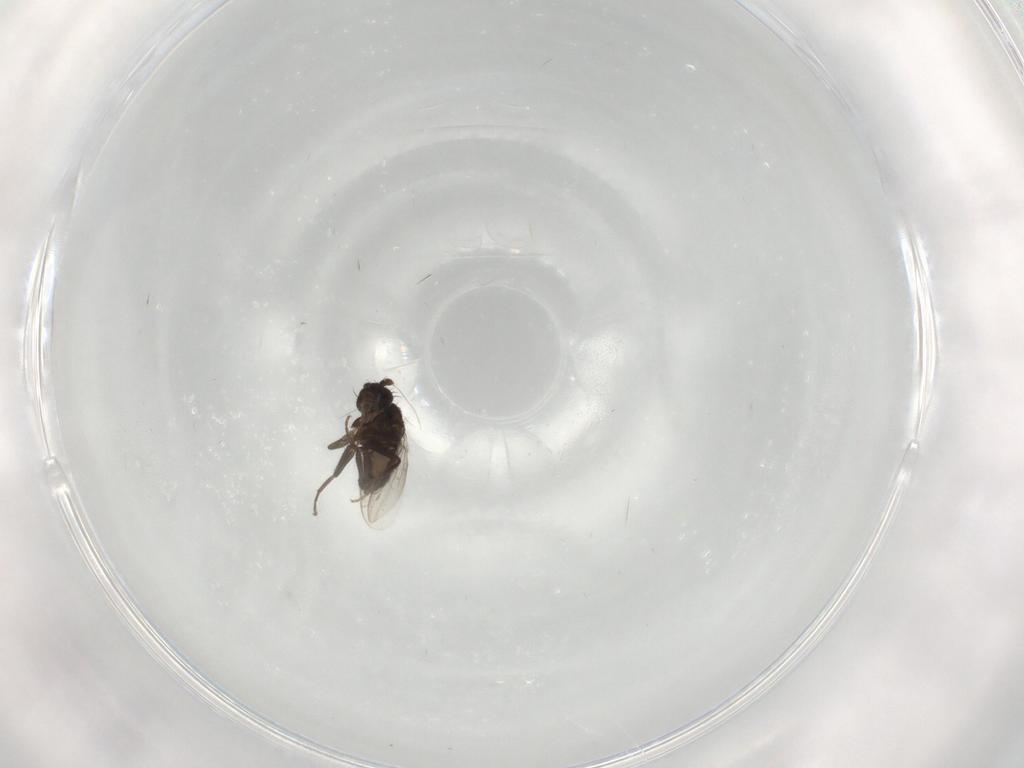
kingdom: Animalia
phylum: Arthropoda
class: Insecta
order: Diptera
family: Sphaeroceridae
